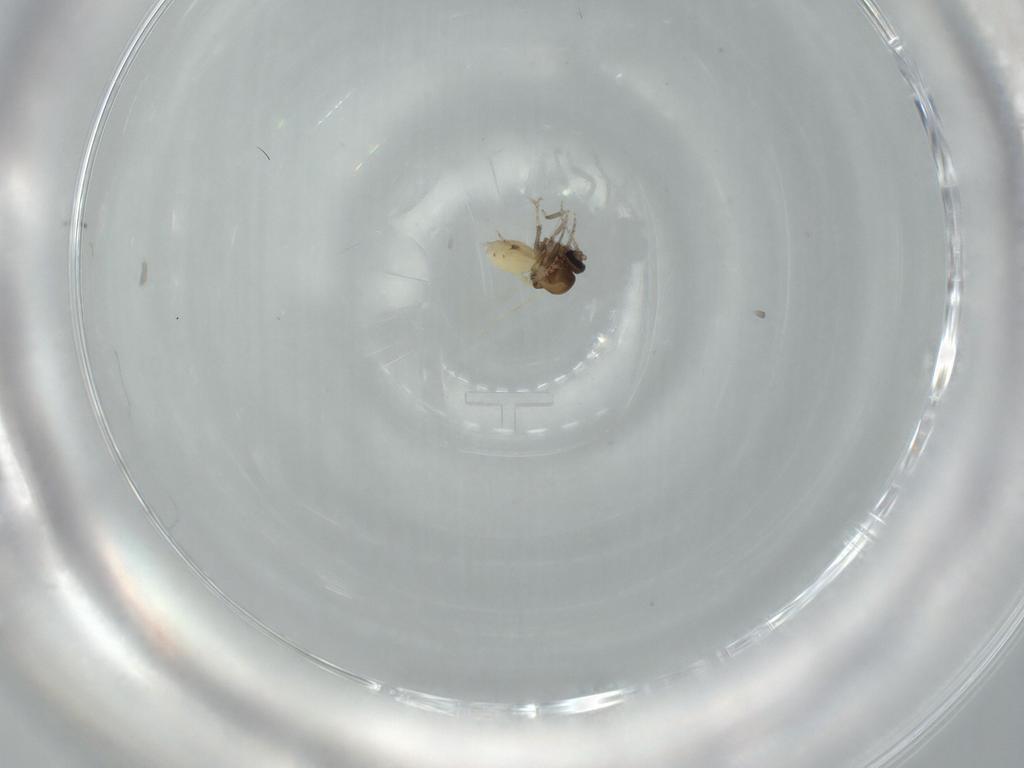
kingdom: Animalia
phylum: Arthropoda
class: Insecta
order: Diptera
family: Ceratopogonidae
